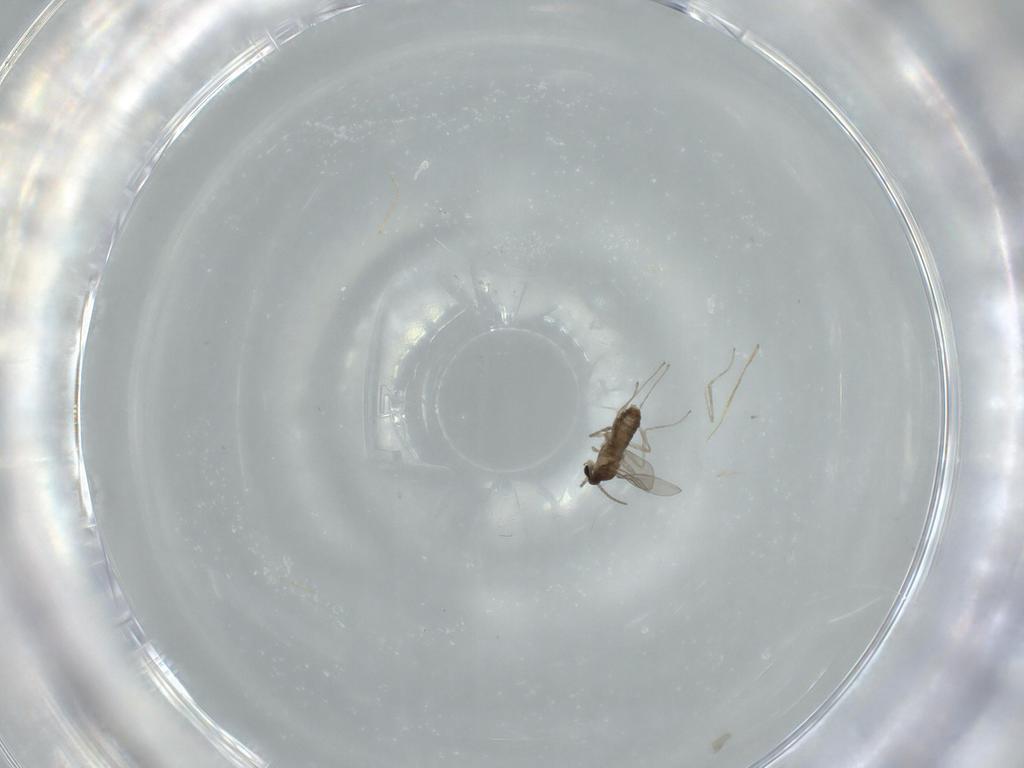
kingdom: Animalia
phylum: Arthropoda
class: Insecta
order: Diptera
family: Cecidomyiidae
